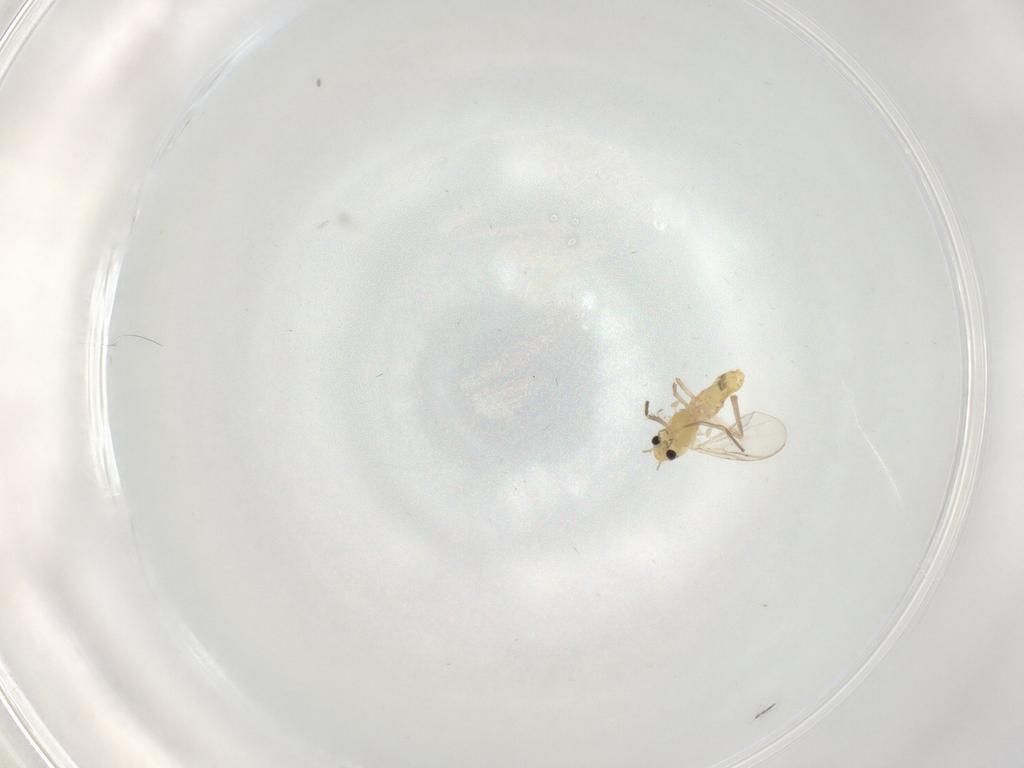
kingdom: Animalia
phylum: Arthropoda
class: Insecta
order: Diptera
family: Chironomidae
